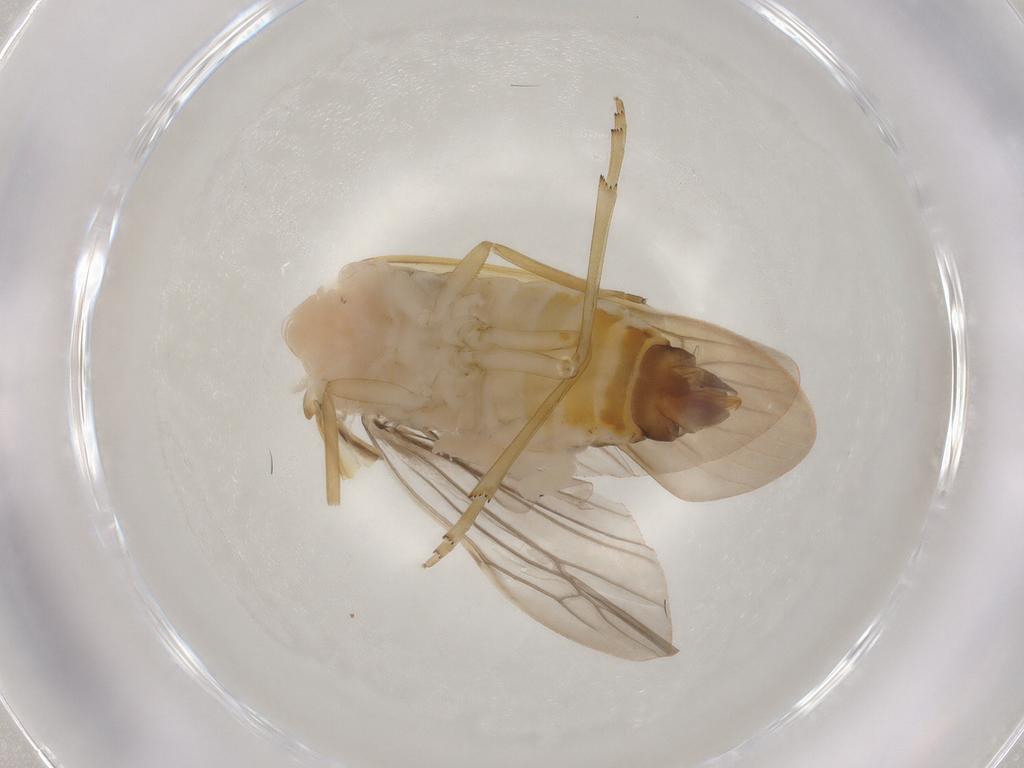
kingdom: Animalia
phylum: Arthropoda
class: Insecta
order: Hemiptera
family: Achilidae
